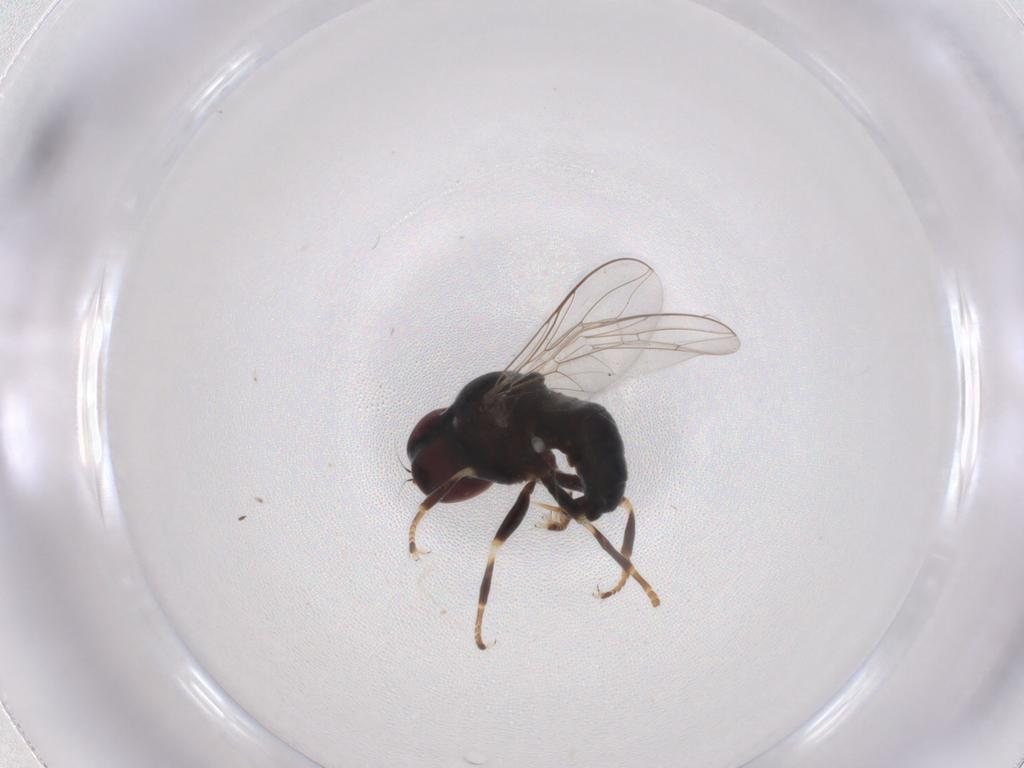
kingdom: Animalia
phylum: Arthropoda
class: Insecta
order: Diptera
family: Pipunculidae
